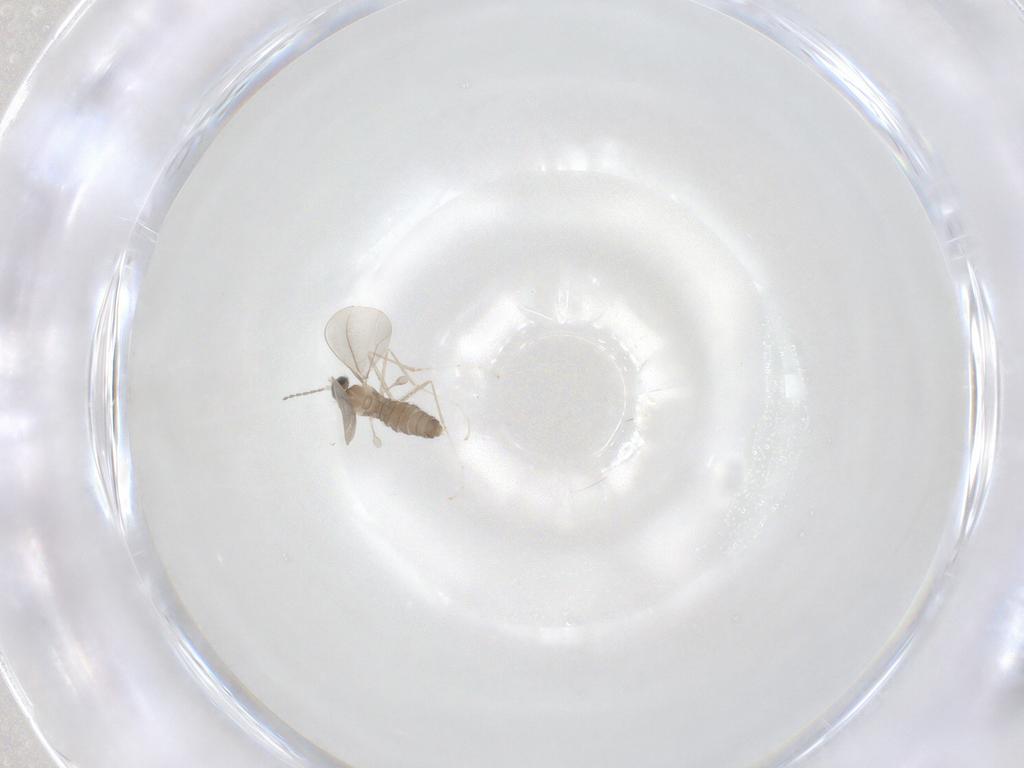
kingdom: Animalia
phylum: Arthropoda
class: Insecta
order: Diptera
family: Cecidomyiidae
